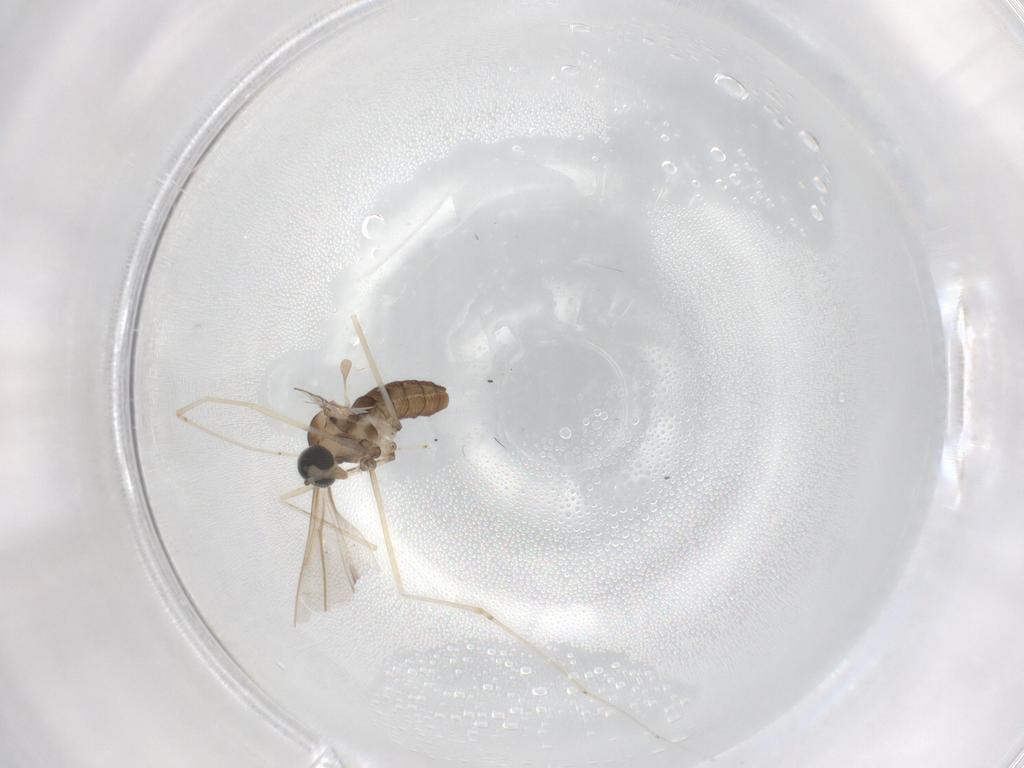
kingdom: Animalia
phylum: Arthropoda
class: Insecta
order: Diptera
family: Cecidomyiidae
